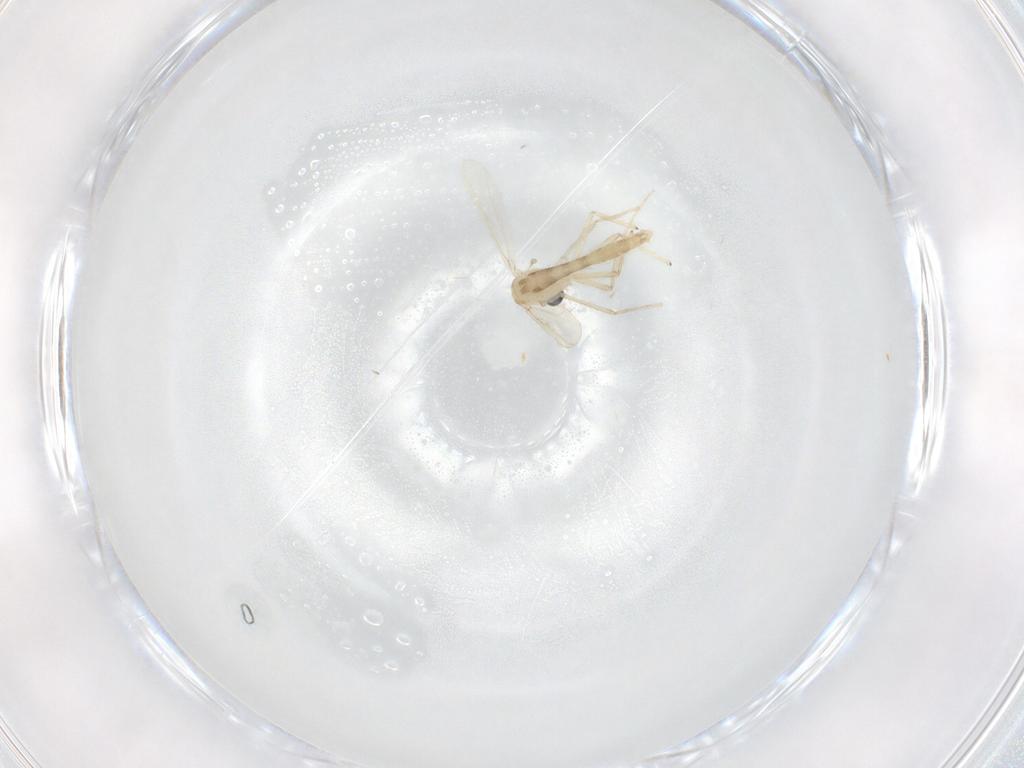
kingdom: Animalia
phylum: Arthropoda
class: Insecta
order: Diptera
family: Chironomidae
